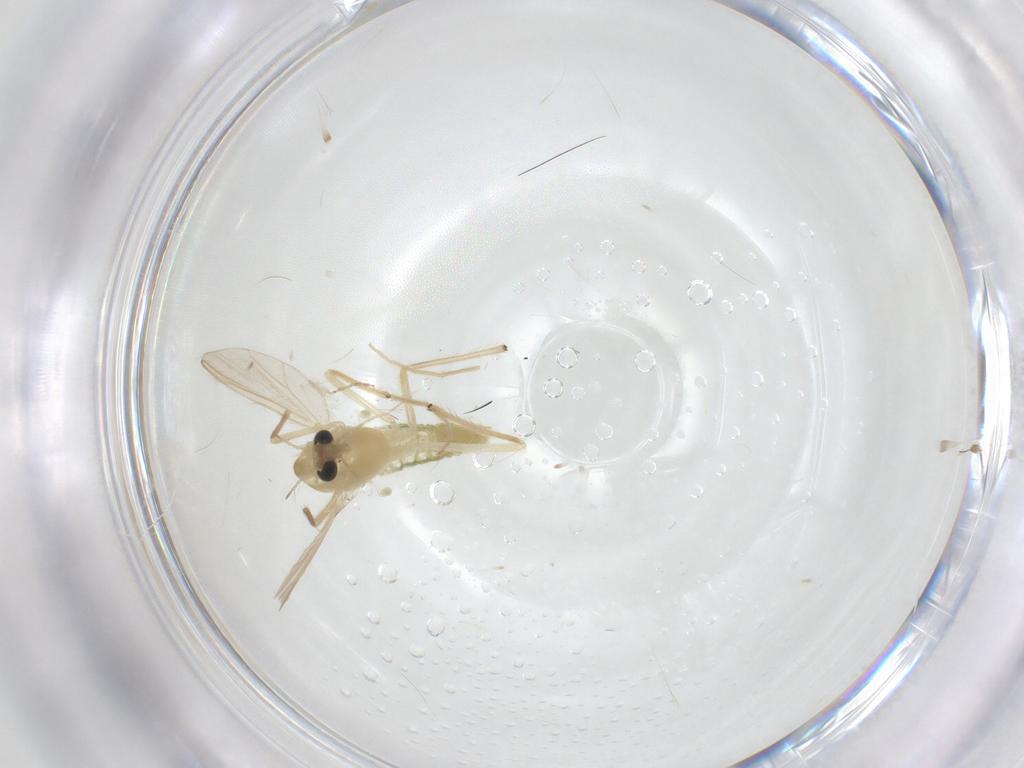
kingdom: Animalia
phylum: Arthropoda
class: Insecta
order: Diptera
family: Chironomidae
